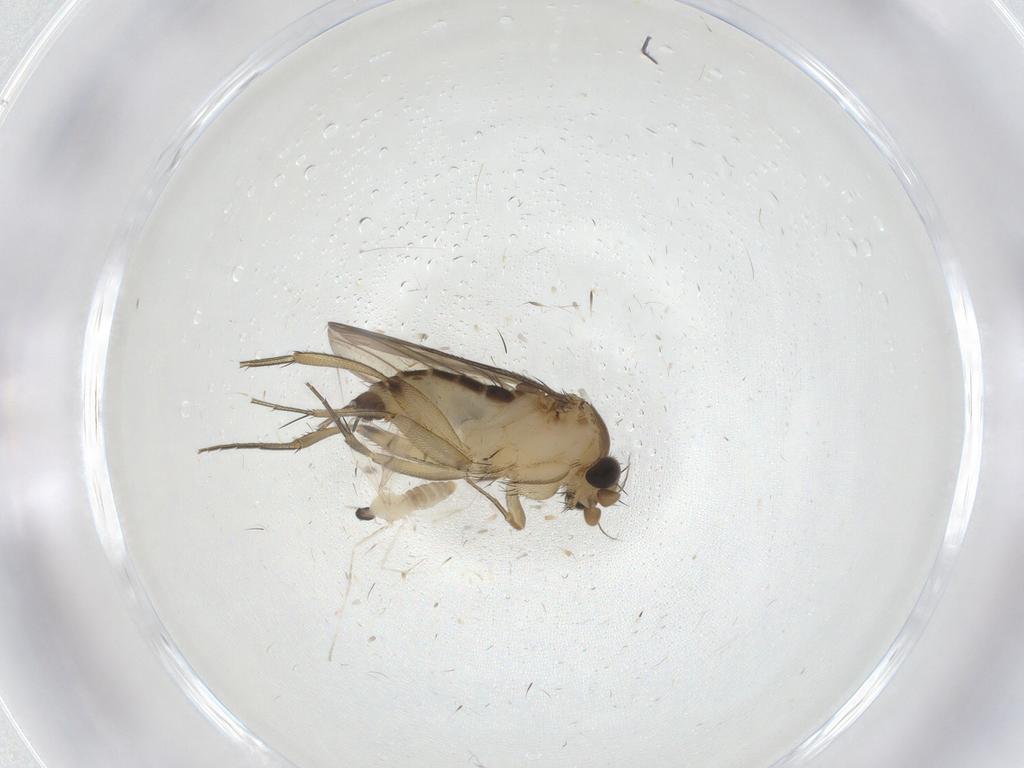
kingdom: Animalia
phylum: Arthropoda
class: Insecta
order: Diptera
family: Phoridae
